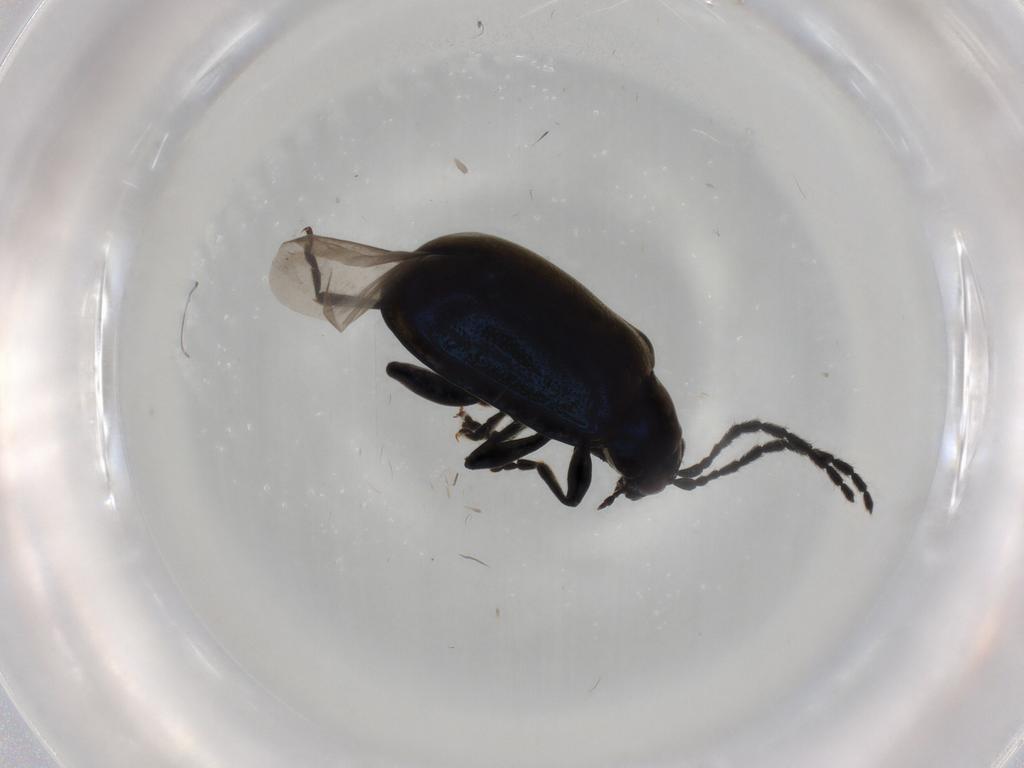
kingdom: Animalia
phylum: Arthropoda
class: Insecta
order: Coleoptera
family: Chrysomelidae
